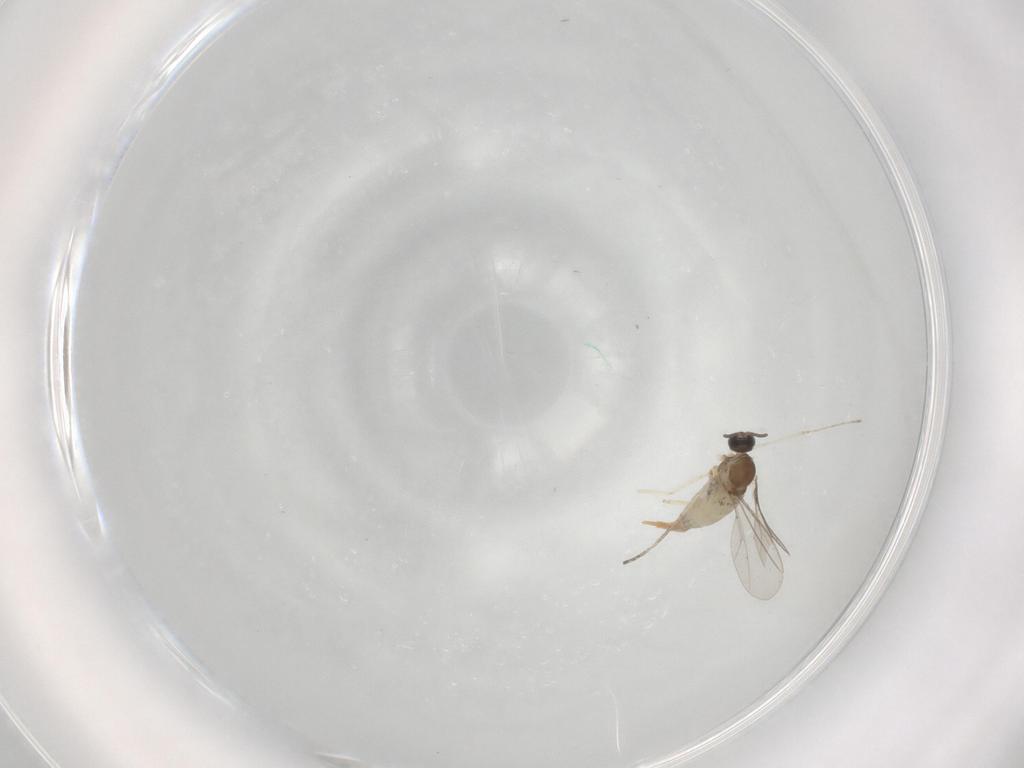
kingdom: Animalia
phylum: Arthropoda
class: Insecta
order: Diptera
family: Cecidomyiidae
